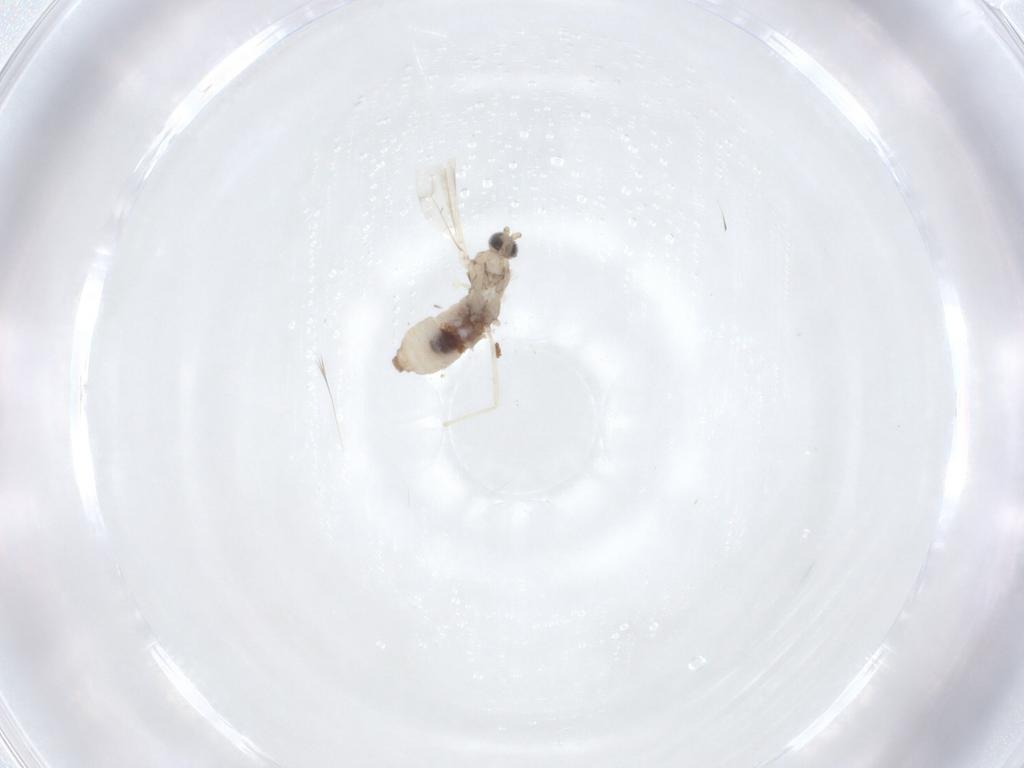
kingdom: Animalia
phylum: Arthropoda
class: Insecta
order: Diptera
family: Cecidomyiidae
